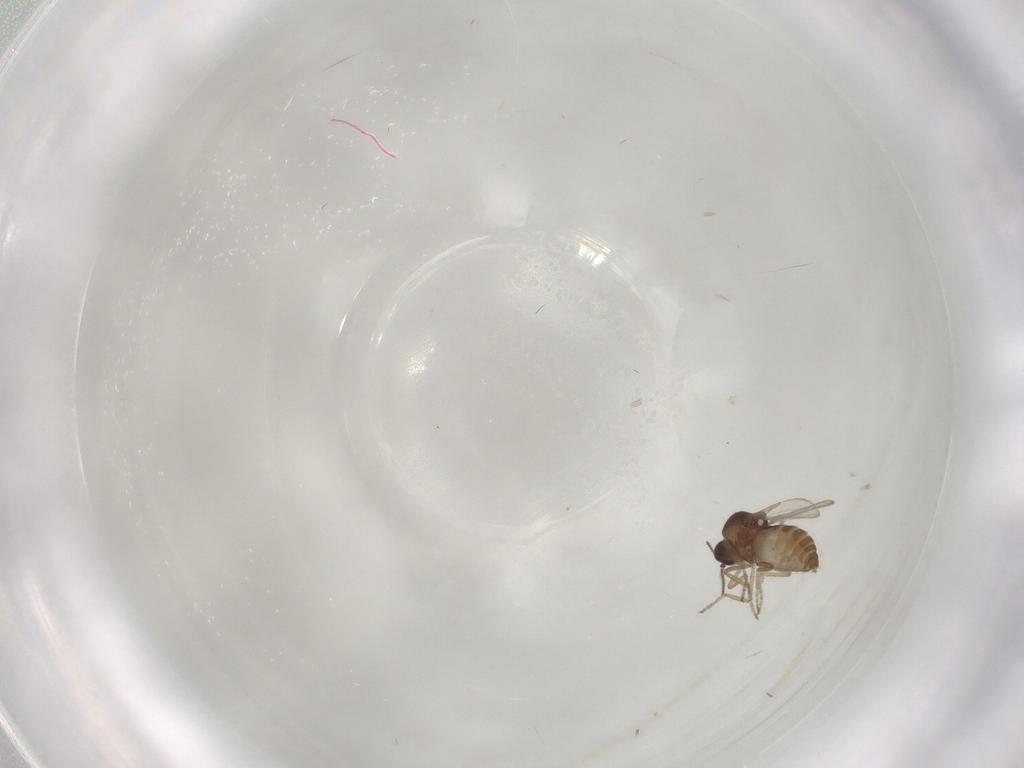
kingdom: Animalia
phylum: Arthropoda
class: Insecta
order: Diptera
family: Ceratopogonidae
